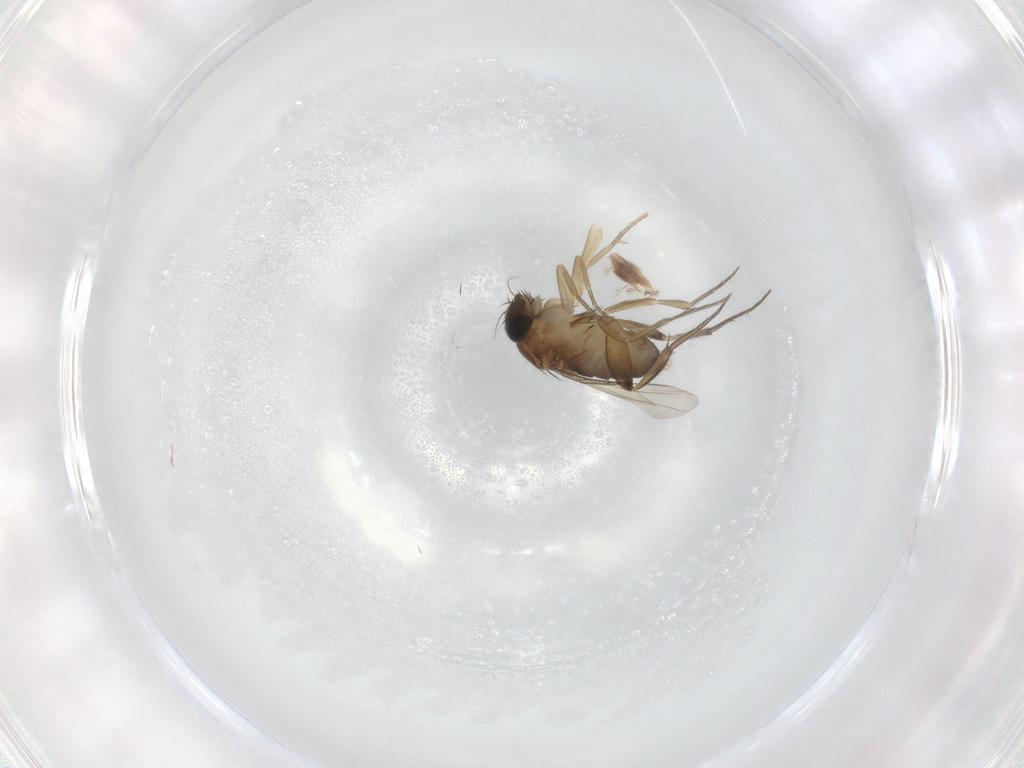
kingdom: Animalia
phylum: Arthropoda
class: Insecta
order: Diptera
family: Phoridae
